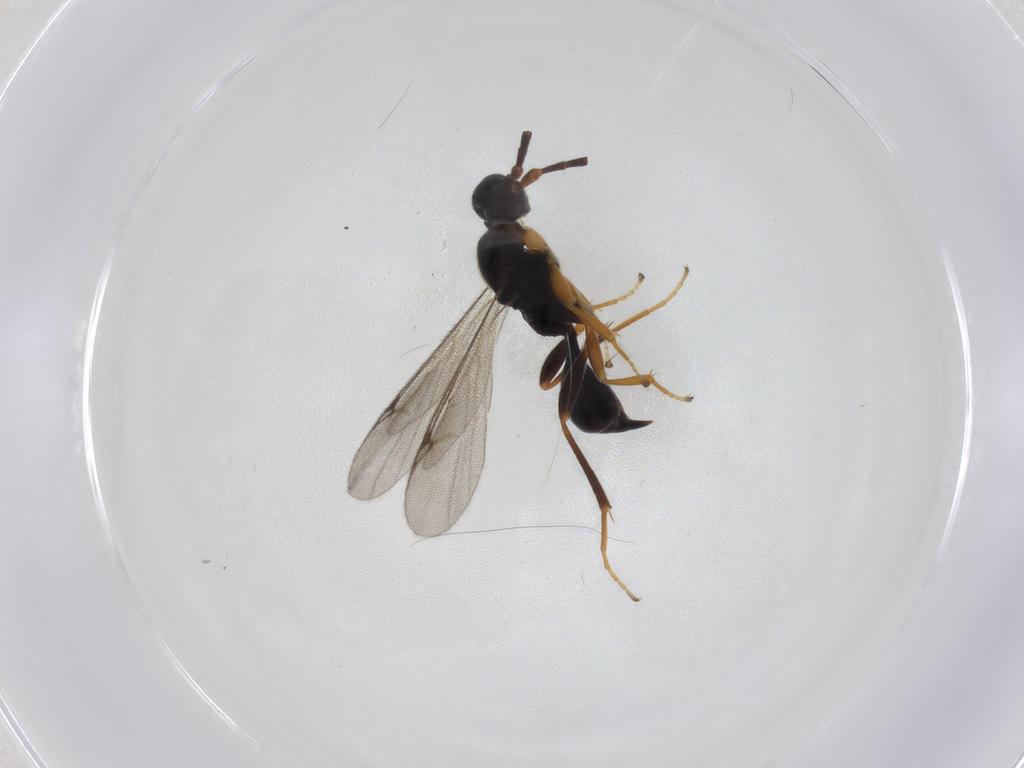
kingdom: Animalia
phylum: Arthropoda
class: Insecta
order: Hymenoptera
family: Proctotrupidae
